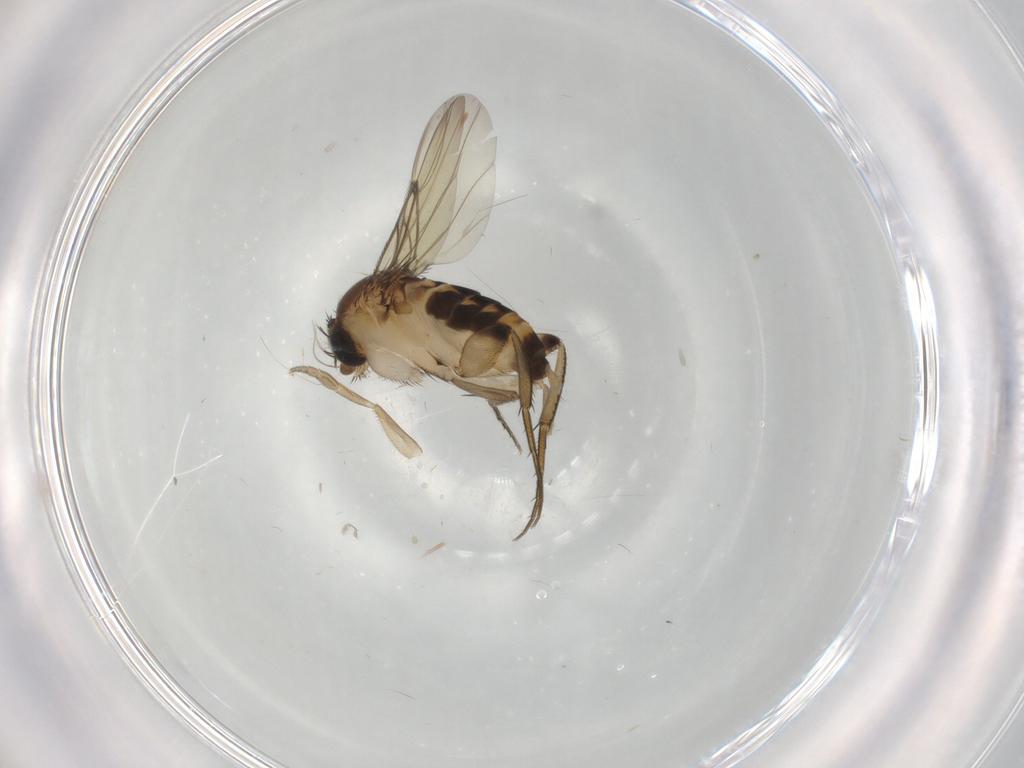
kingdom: Animalia
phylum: Arthropoda
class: Insecta
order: Diptera
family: Phoridae
